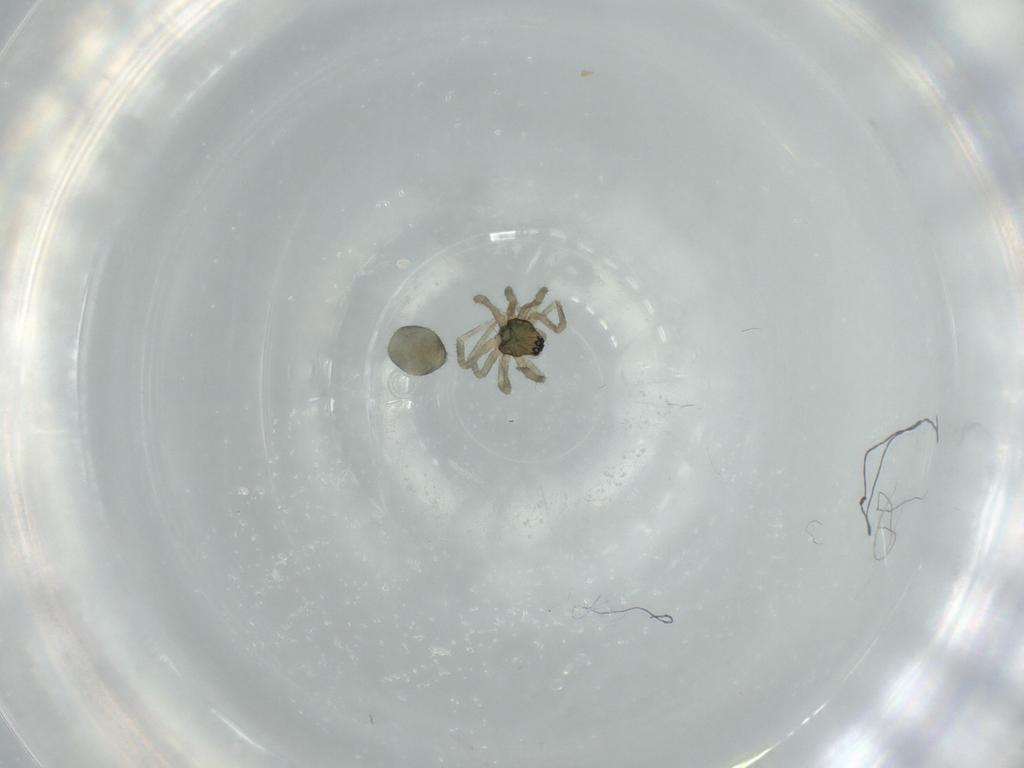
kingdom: Animalia
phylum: Arthropoda
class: Arachnida
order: Araneae
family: Linyphiidae
